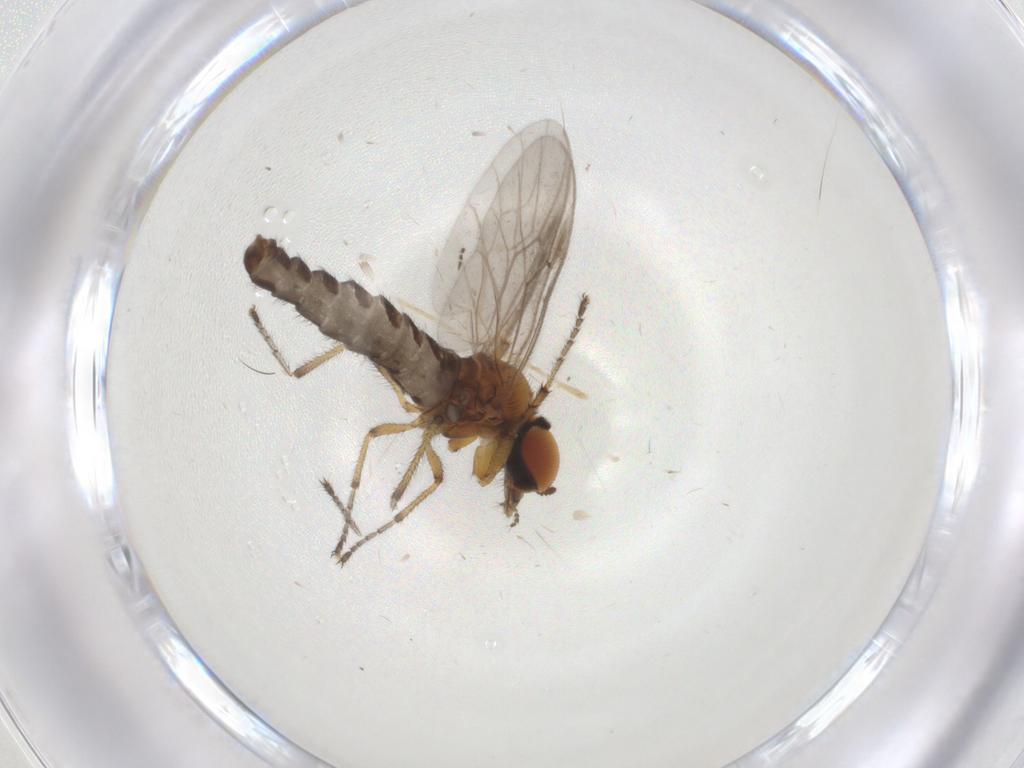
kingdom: Animalia
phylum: Arthropoda
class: Insecta
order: Diptera
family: Bibionidae
